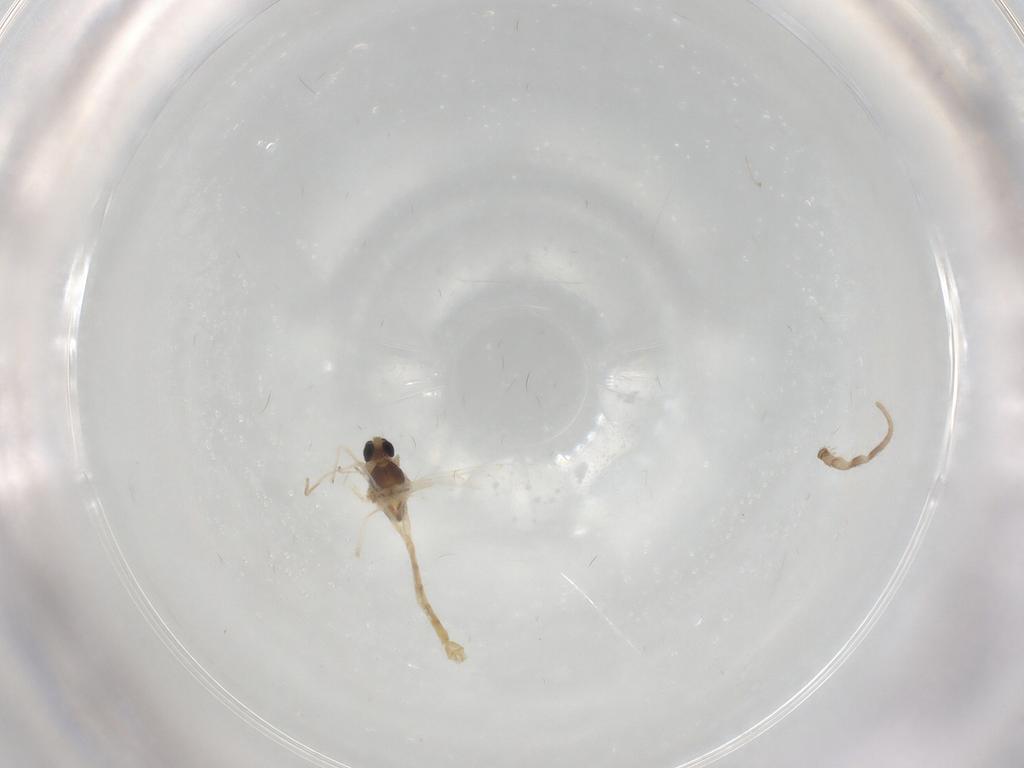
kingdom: Animalia
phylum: Arthropoda
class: Insecta
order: Diptera
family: Chironomidae
